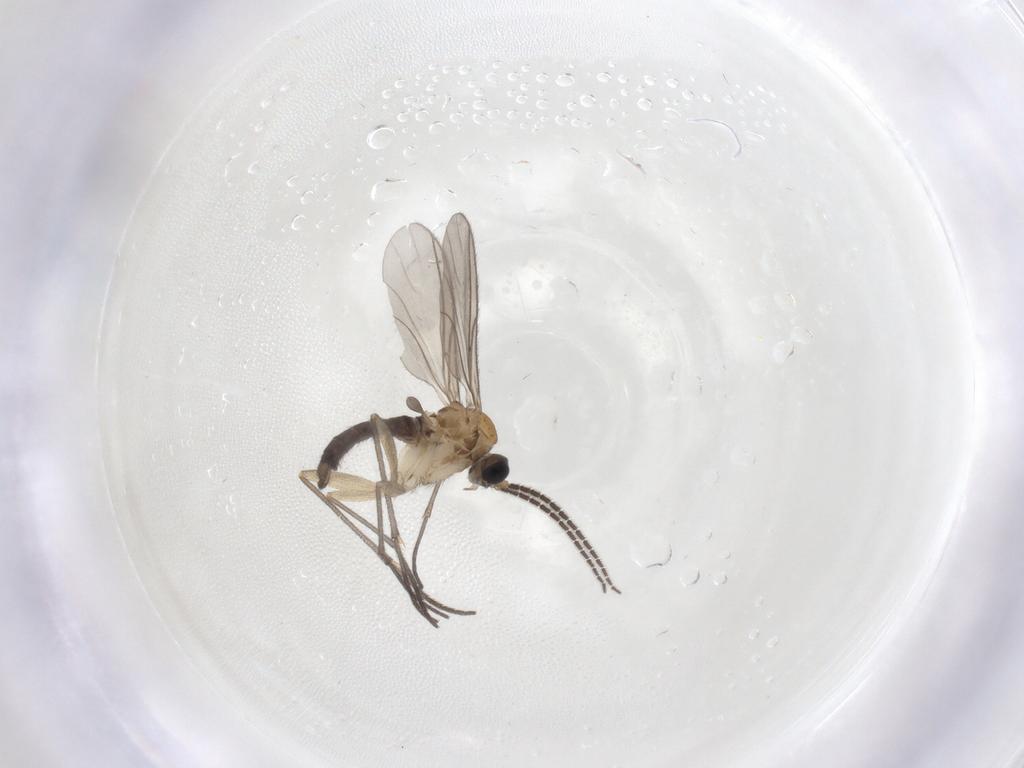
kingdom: Animalia
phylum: Arthropoda
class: Insecta
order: Diptera
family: Sciaridae
